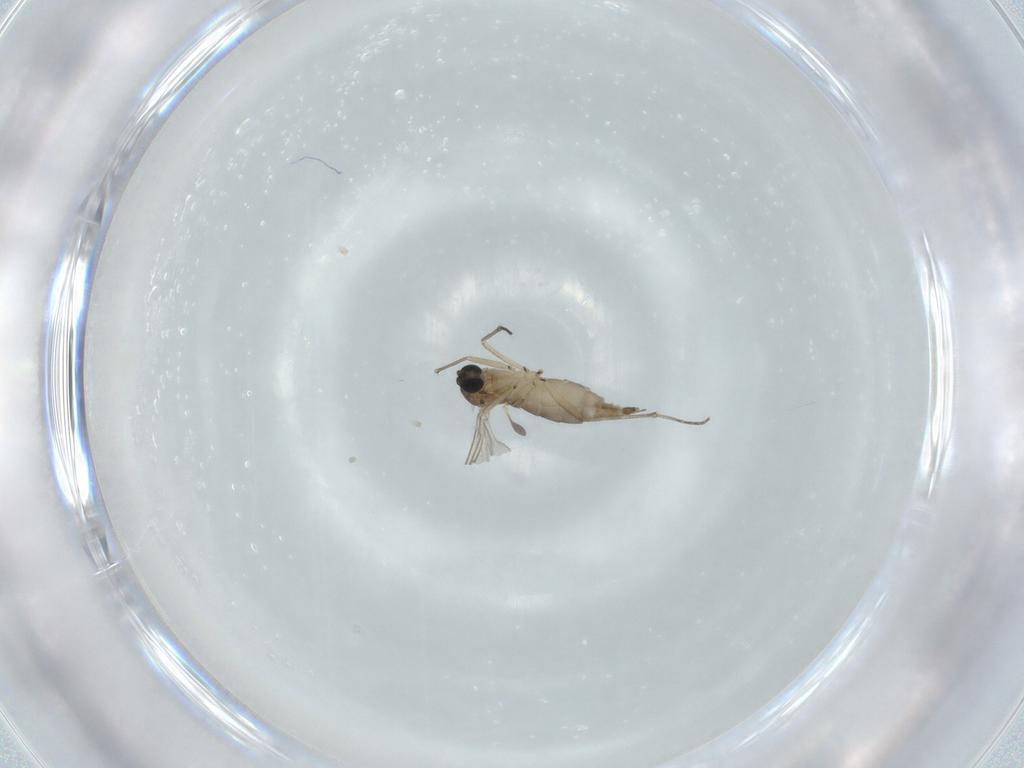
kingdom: Animalia
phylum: Arthropoda
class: Insecta
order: Diptera
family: Sciaridae
